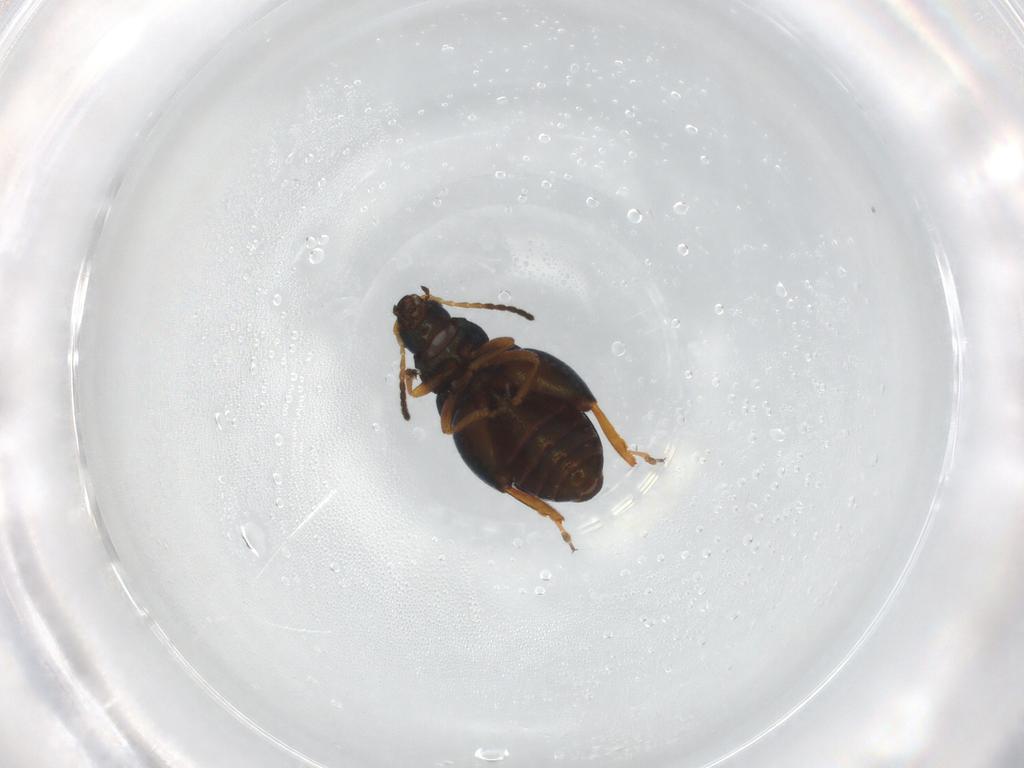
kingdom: Animalia
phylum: Arthropoda
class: Insecta
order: Coleoptera
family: Chrysomelidae
